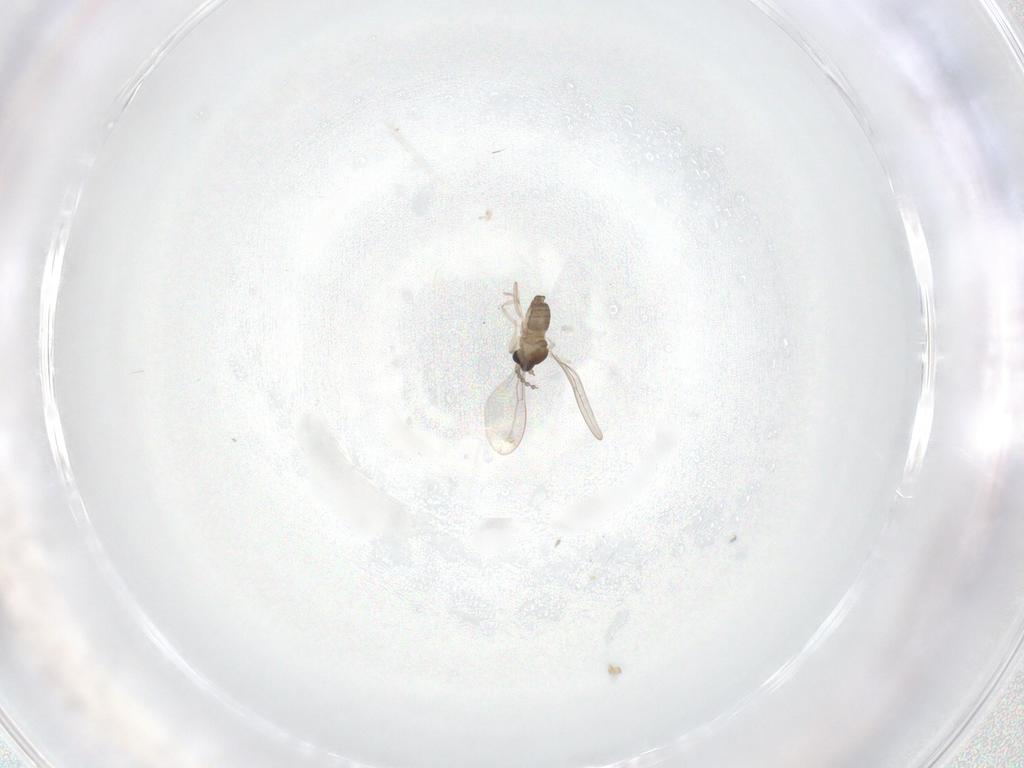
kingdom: Animalia
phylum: Arthropoda
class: Insecta
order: Diptera
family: Cecidomyiidae
